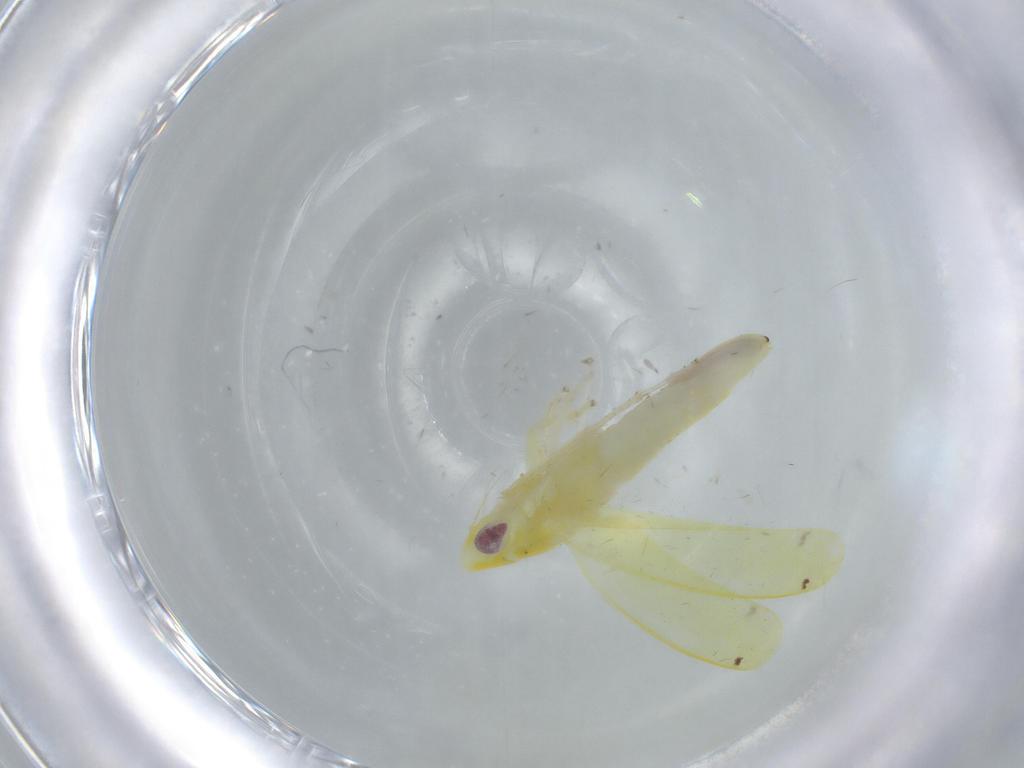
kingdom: Animalia
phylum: Arthropoda
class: Insecta
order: Hemiptera
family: Cicadellidae
